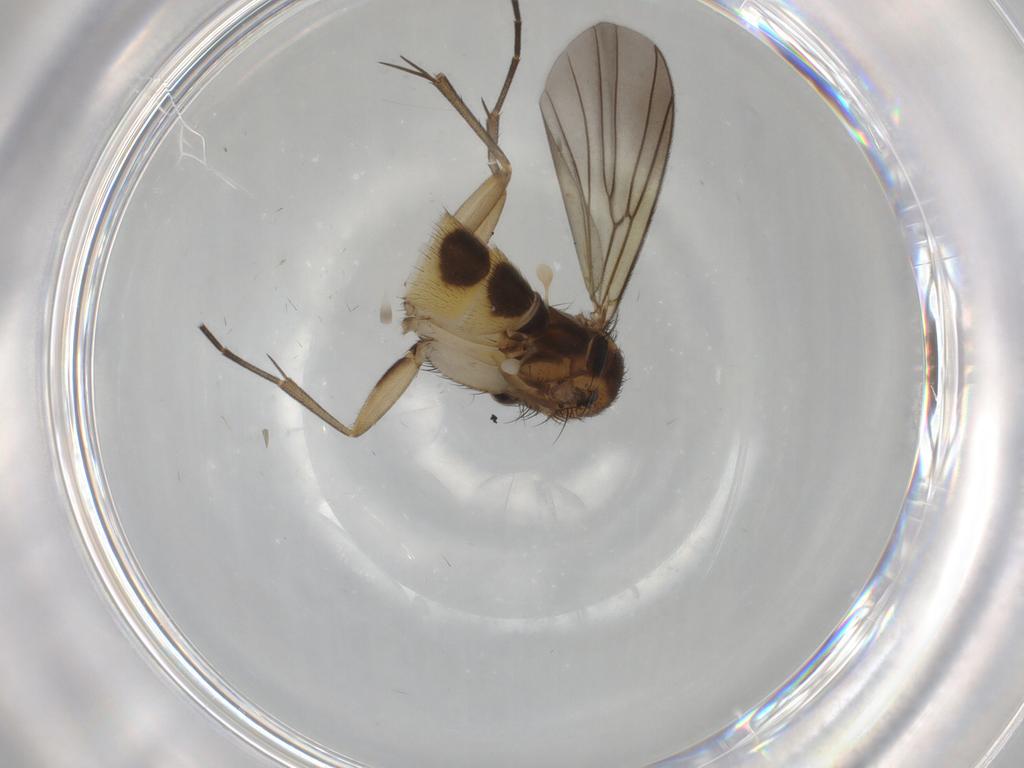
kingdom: Animalia
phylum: Arthropoda
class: Insecta
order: Diptera
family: Mycetophilidae
